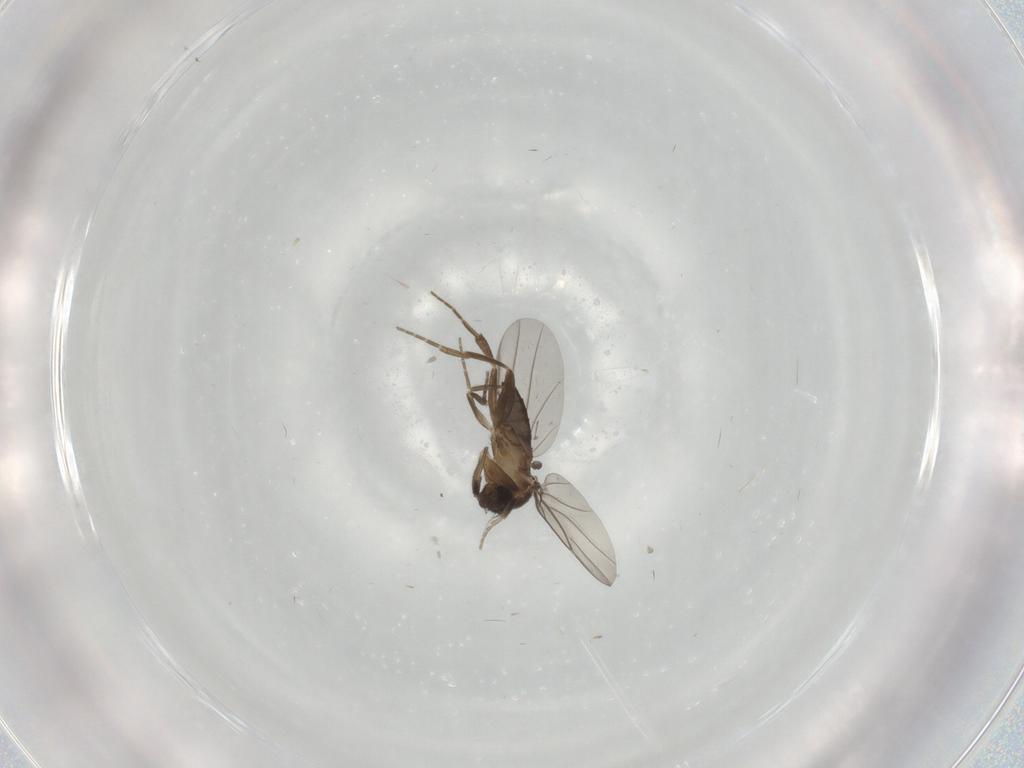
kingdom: Animalia
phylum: Arthropoda
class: Insecta
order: Diptera
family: Phoridae
